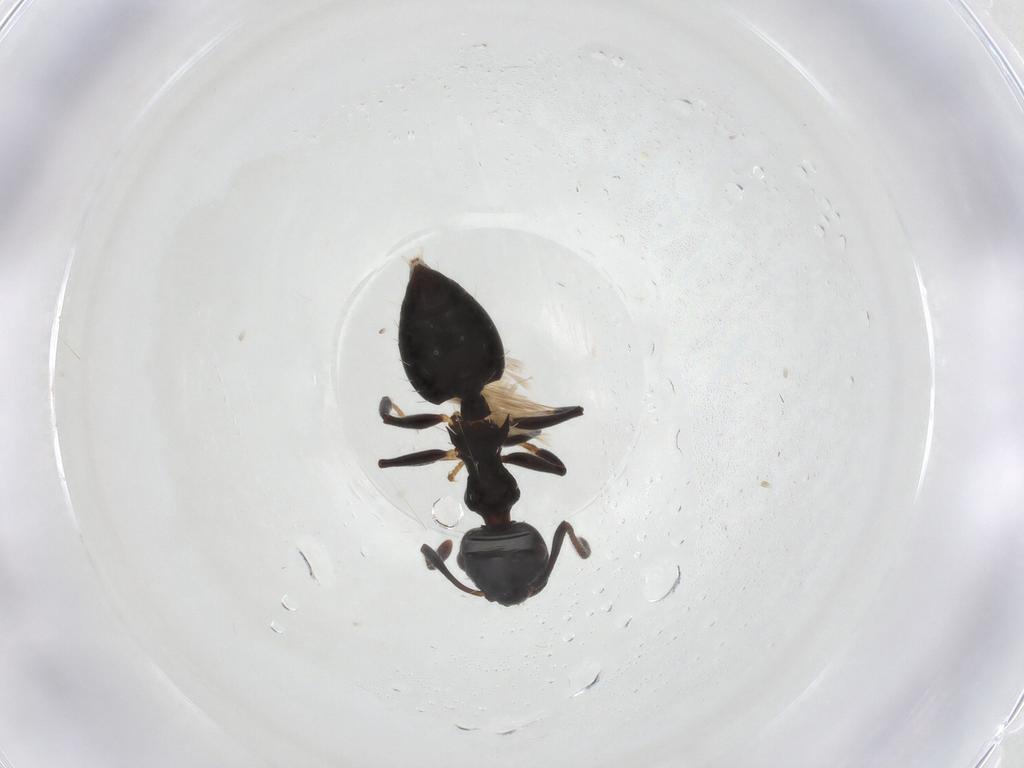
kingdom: Animalia
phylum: Arthropoda
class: Insecta
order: Hymenoptera
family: Formicidae
